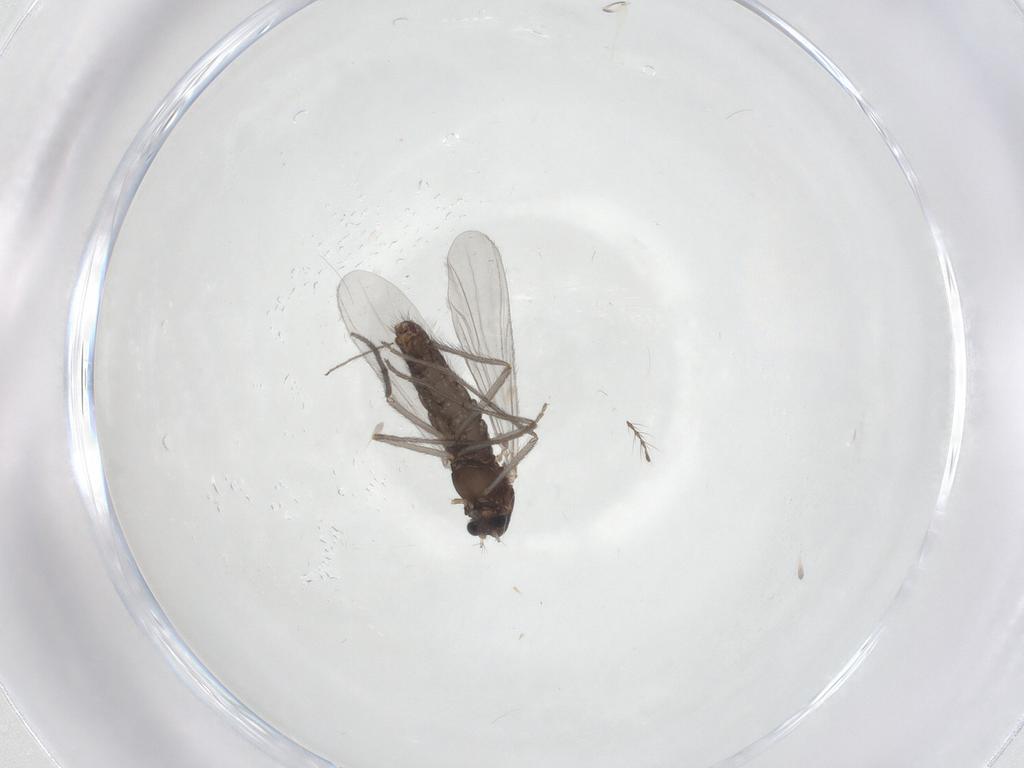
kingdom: Animalia
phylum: Arthropoda
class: Insecta
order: Diptera
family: Chironomidae
